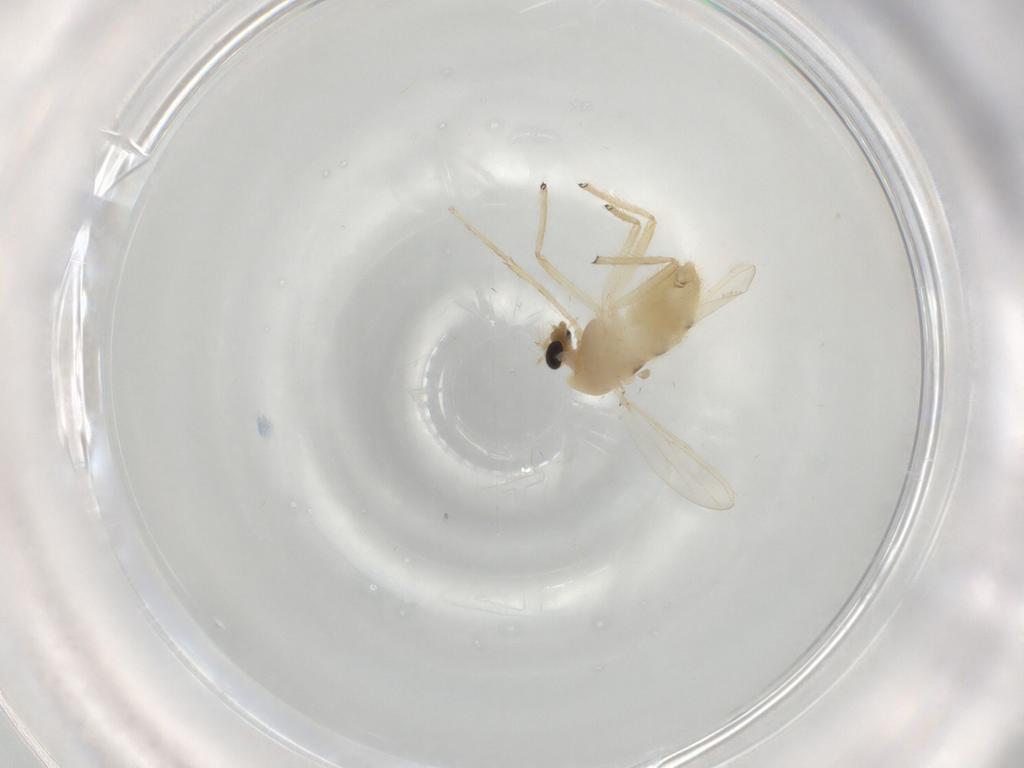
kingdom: Animalia
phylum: Arthropoda
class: Insecta
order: Diptera
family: Chironomidae
